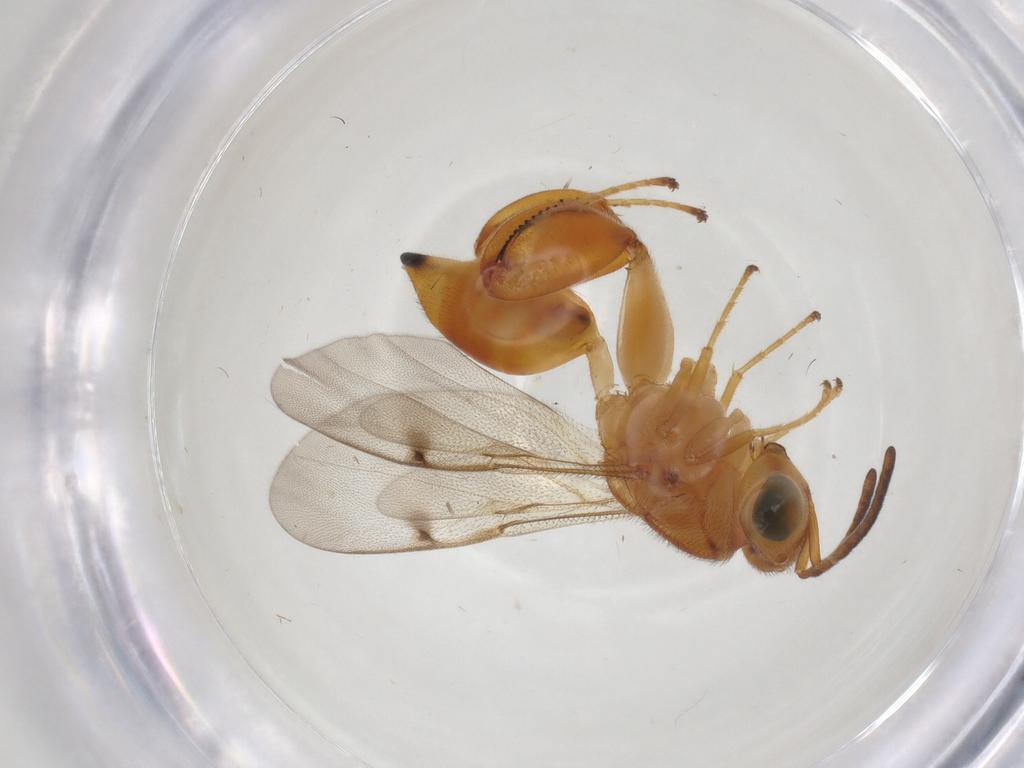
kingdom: Animalia
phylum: Arthropoda
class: Insecta
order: Hymenoptera
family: Chalcididae
